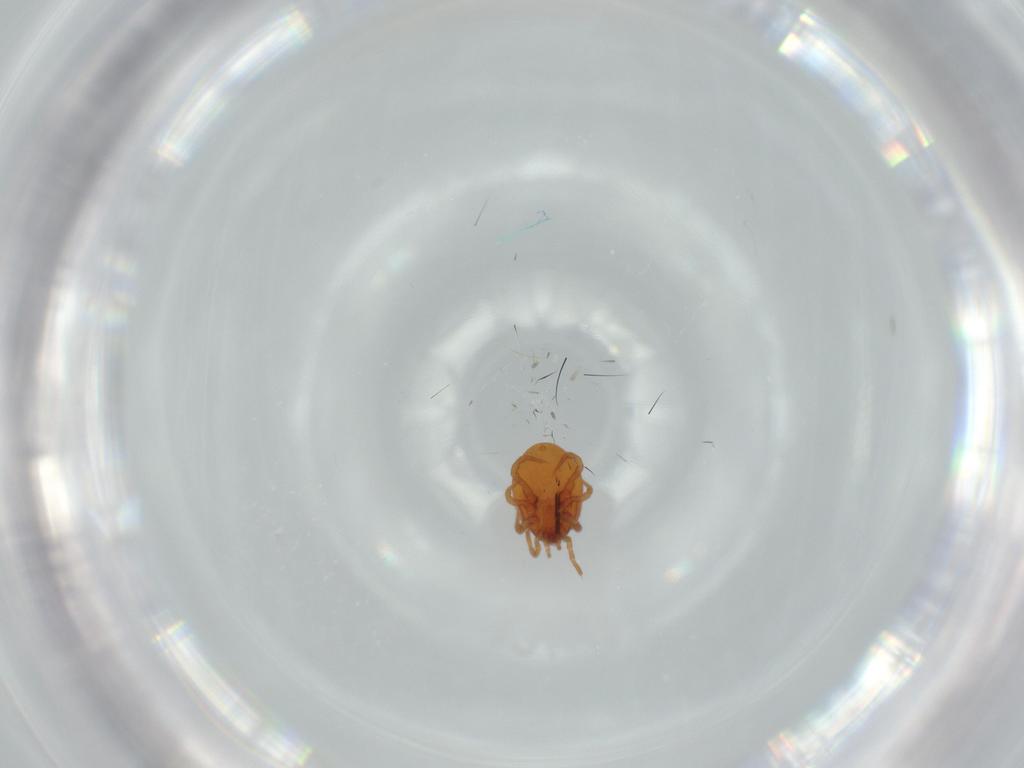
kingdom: Animalia
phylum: Arthropoda
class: Arachnida
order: Mesostigmata
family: Parasitidae
